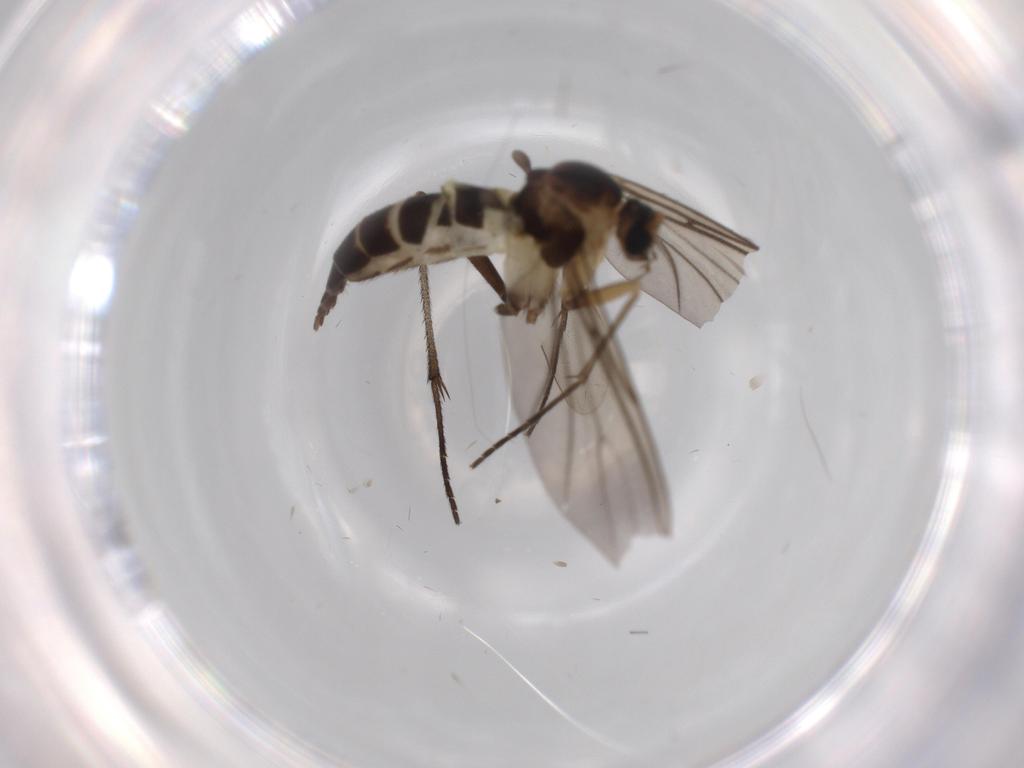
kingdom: Animalia
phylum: Arthropoda
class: Insecta
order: Diptera
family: Sciaridae
